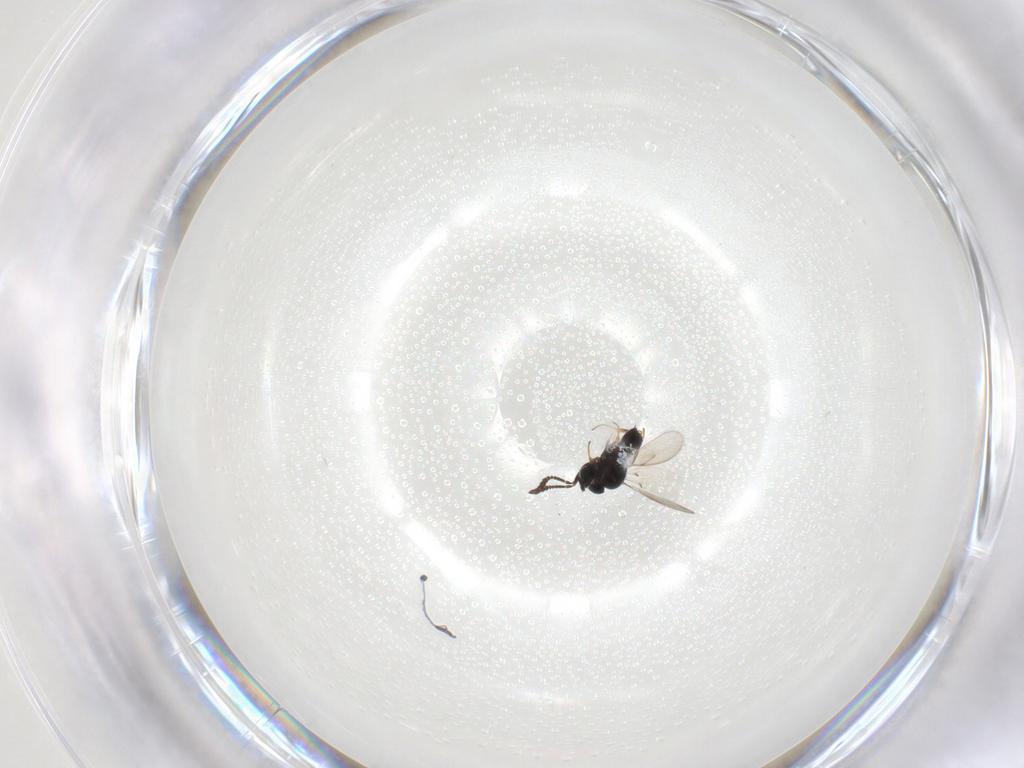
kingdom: Animalia
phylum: Arthropoda
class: Insecta
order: Hymenoptera
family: Scelionidae
